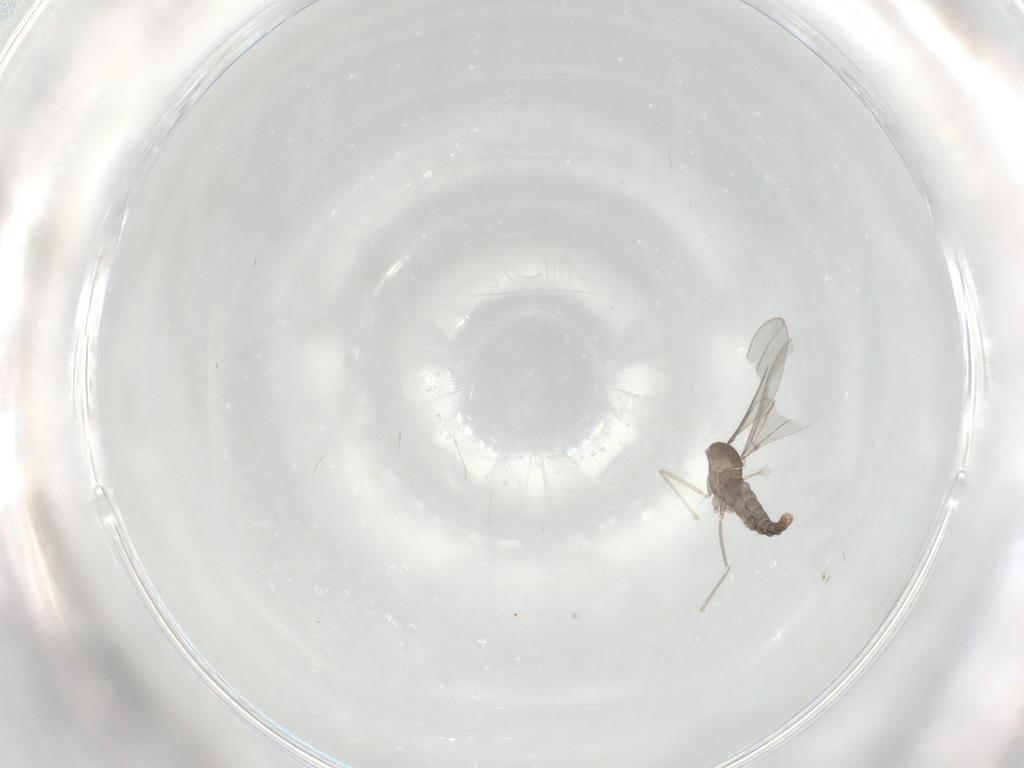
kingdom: Animalia
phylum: Arthropoda
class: Insecta
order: Diptera
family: Cecidomyiidae
